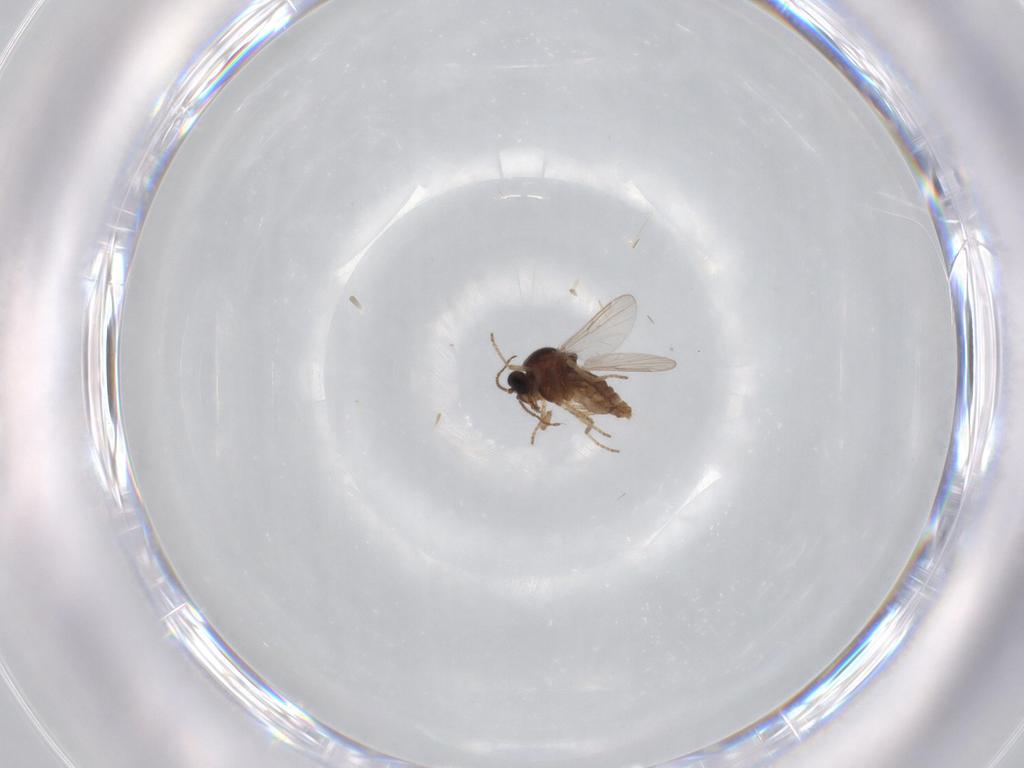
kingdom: Animalia
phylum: Arthropoda
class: Insecta
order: Diptera
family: Ceratopogonidae
